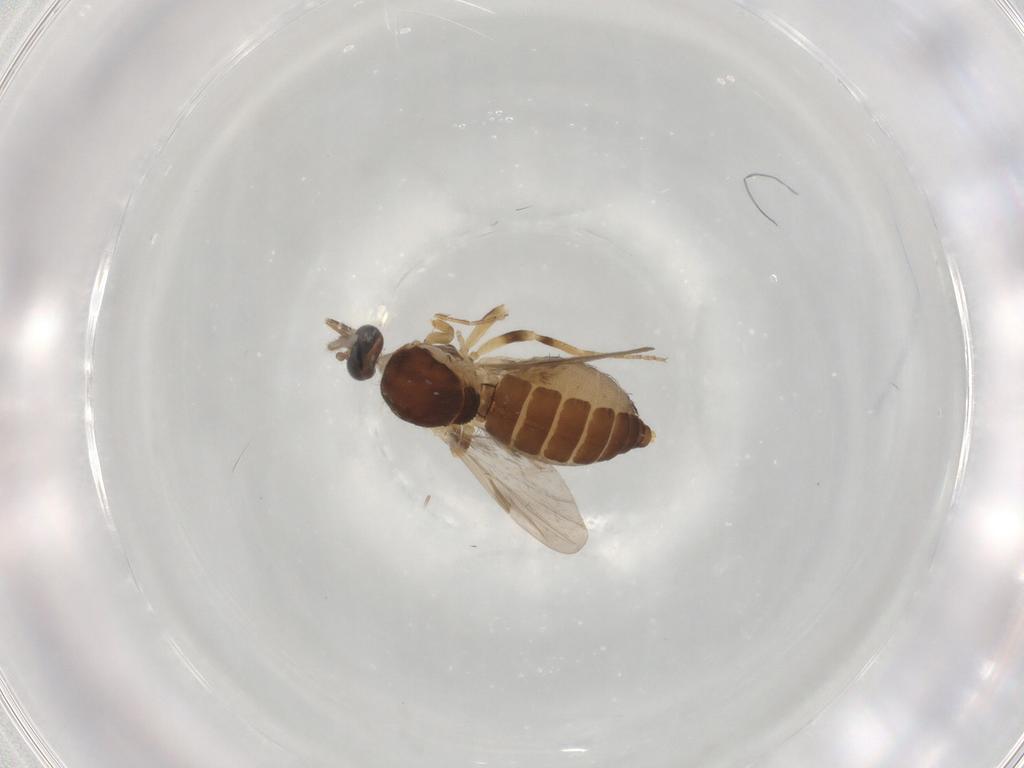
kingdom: Animalia
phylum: Arthropoda
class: Insecta
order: Diptera
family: Ceratopogonidae
